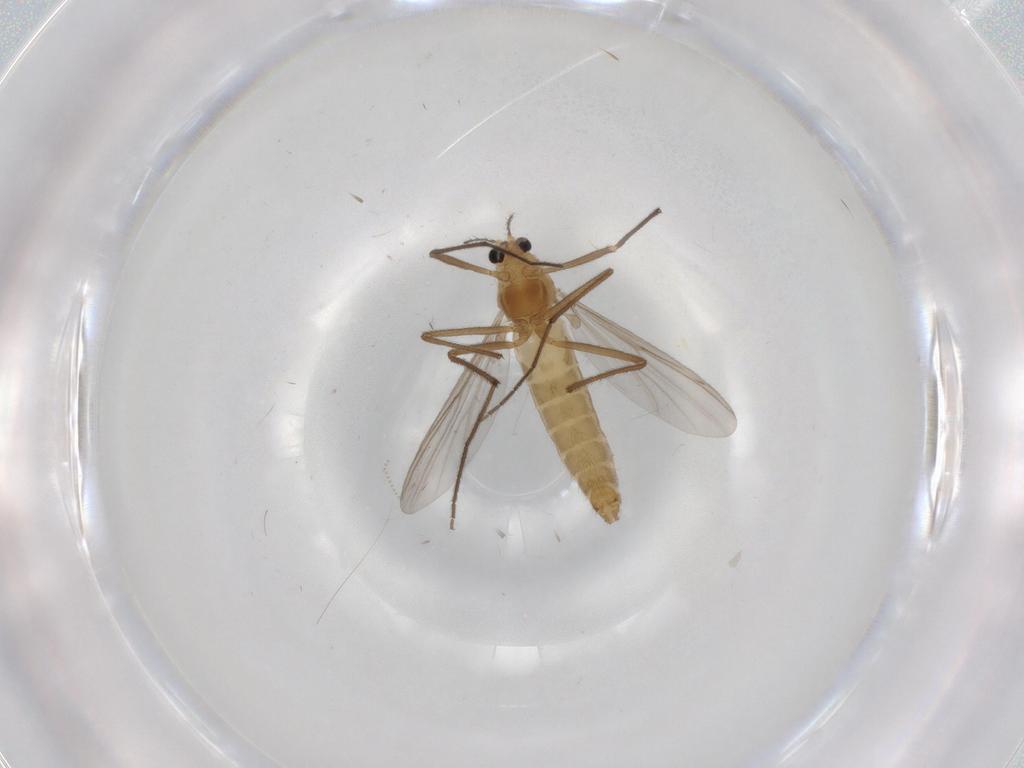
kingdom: Animalia
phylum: Arthropoda
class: Insecta
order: Diptera
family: Chironomidae
